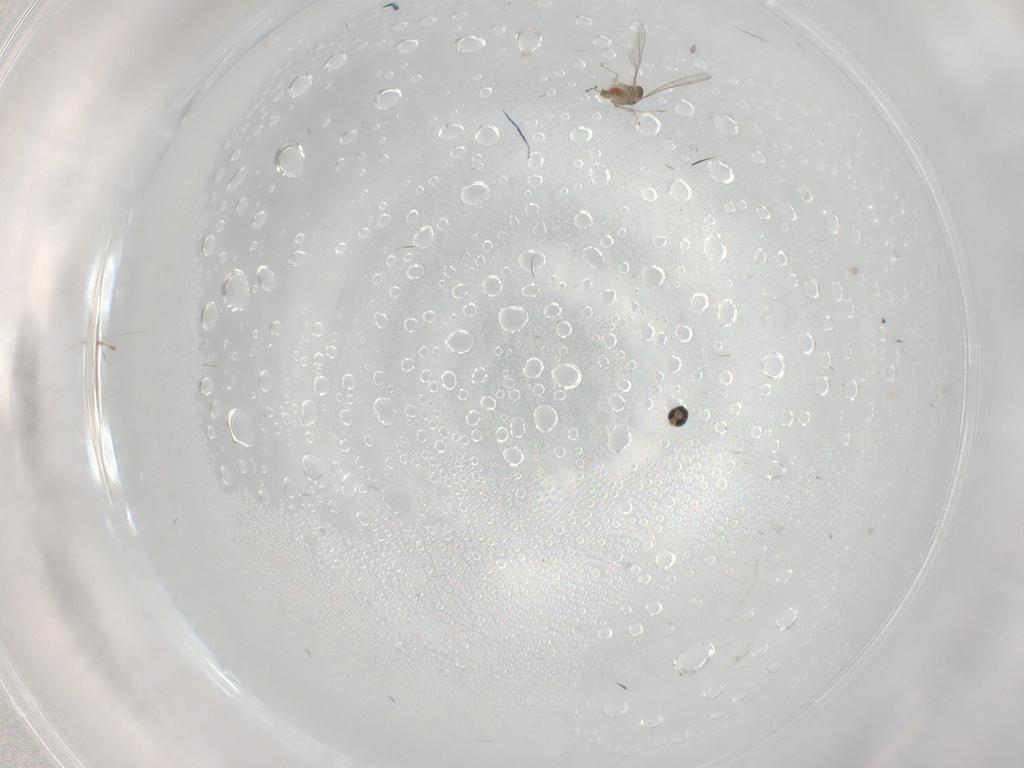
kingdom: Animalia
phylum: Arthropoda
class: Insecta
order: Diptera
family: Cecidomyiidae
